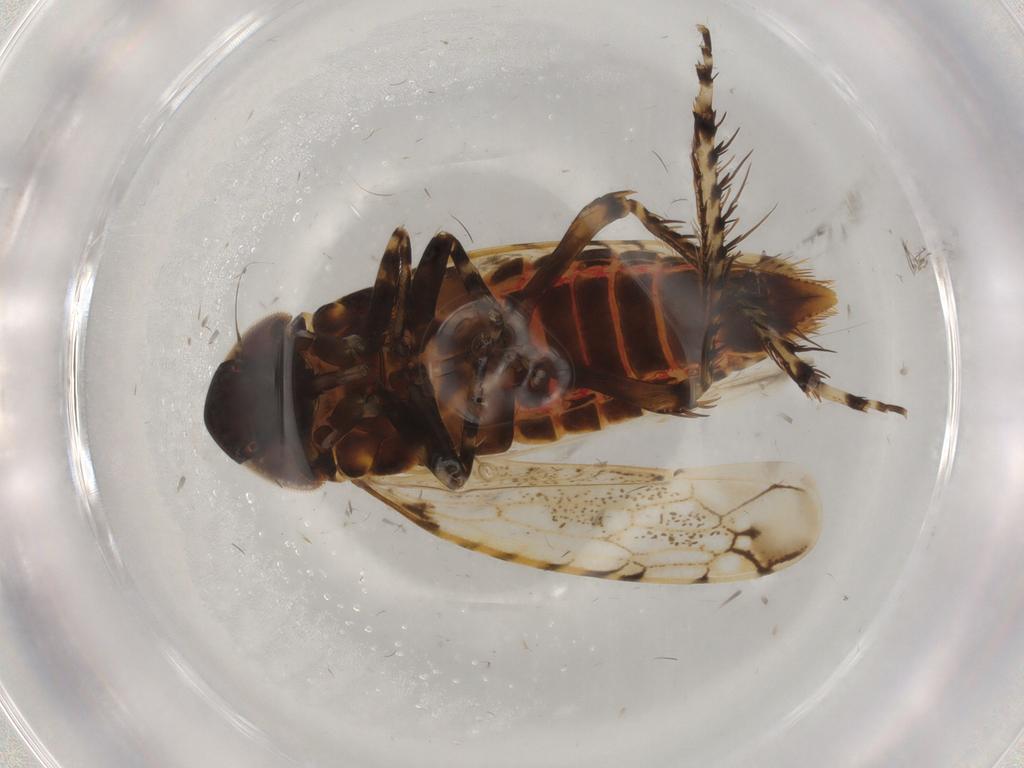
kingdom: Animalia
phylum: Arthropoda
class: Insecta
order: Hemiptera
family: Cicadellidae
